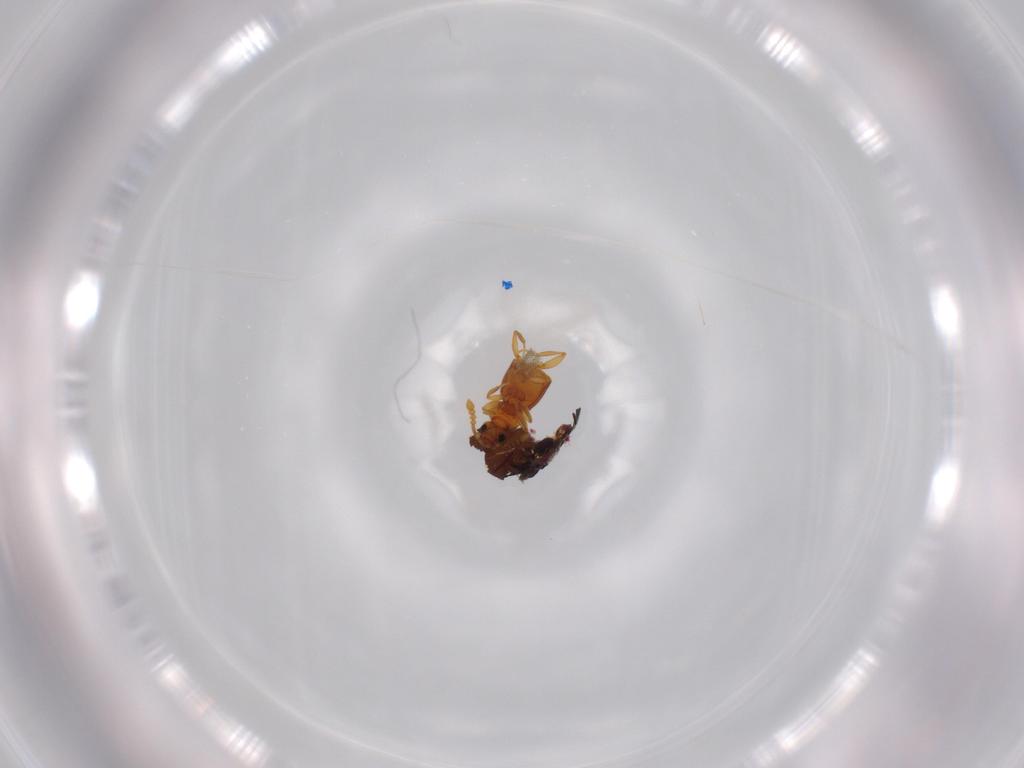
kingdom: Animalia
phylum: Arthropoda
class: Insecta
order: Coleoptera
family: Staphylinidae
